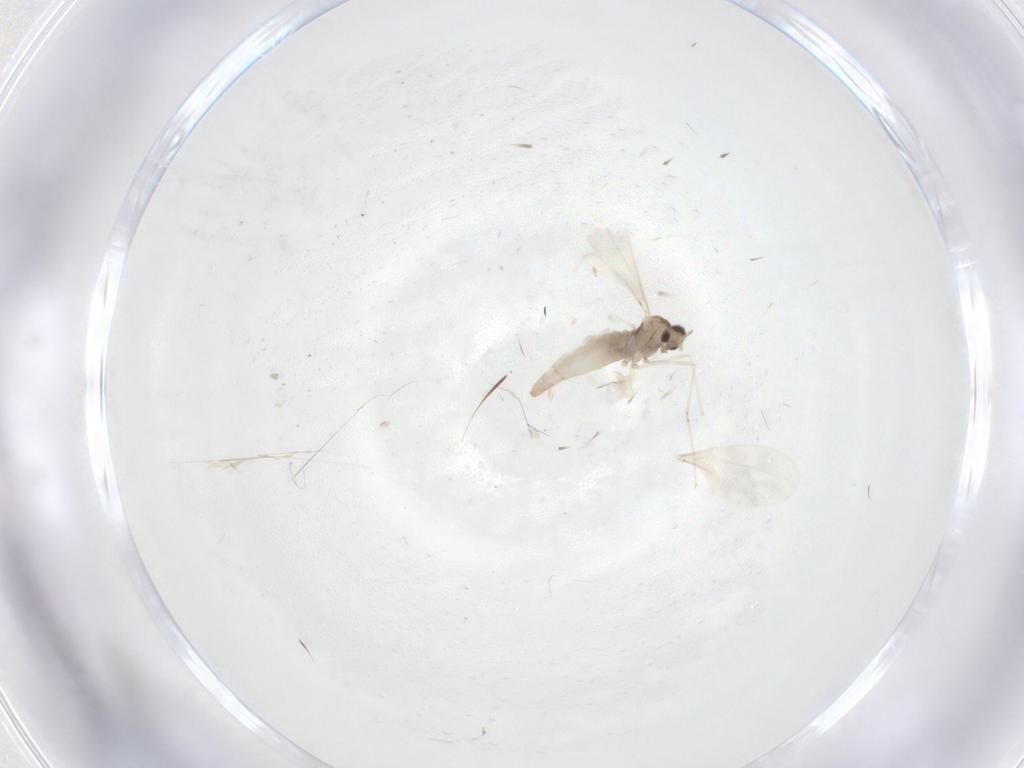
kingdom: Animalia
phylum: Arthropoda
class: Insecta
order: Diptera
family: Cecidomyiidae
